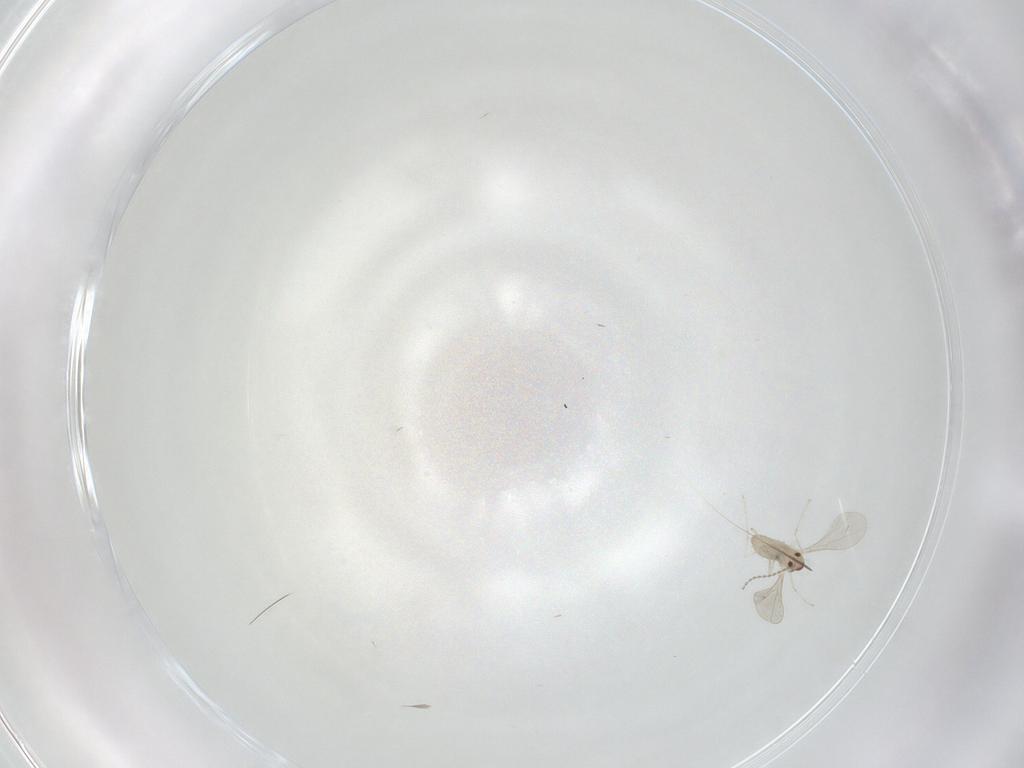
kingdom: Animalia
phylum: Arthropoda
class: Insecta
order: Diptera
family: Cecidomyiidae
